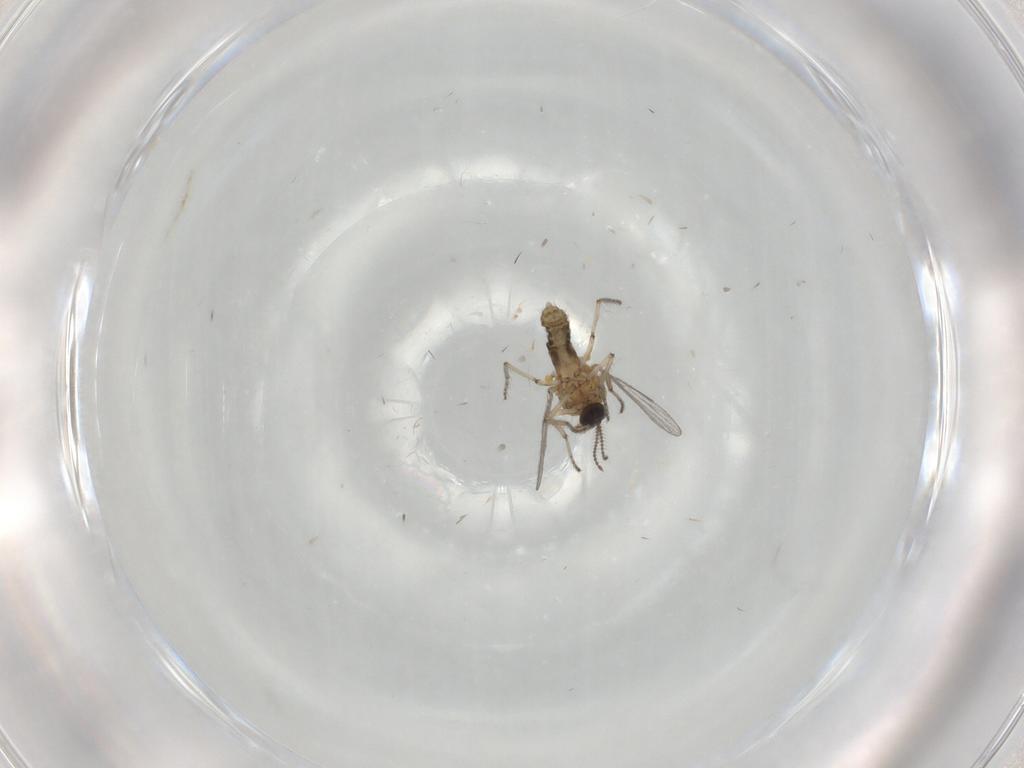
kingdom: Animalia
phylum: Arthropoda
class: Insecta
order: Diptera
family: Ceratopogonidae
